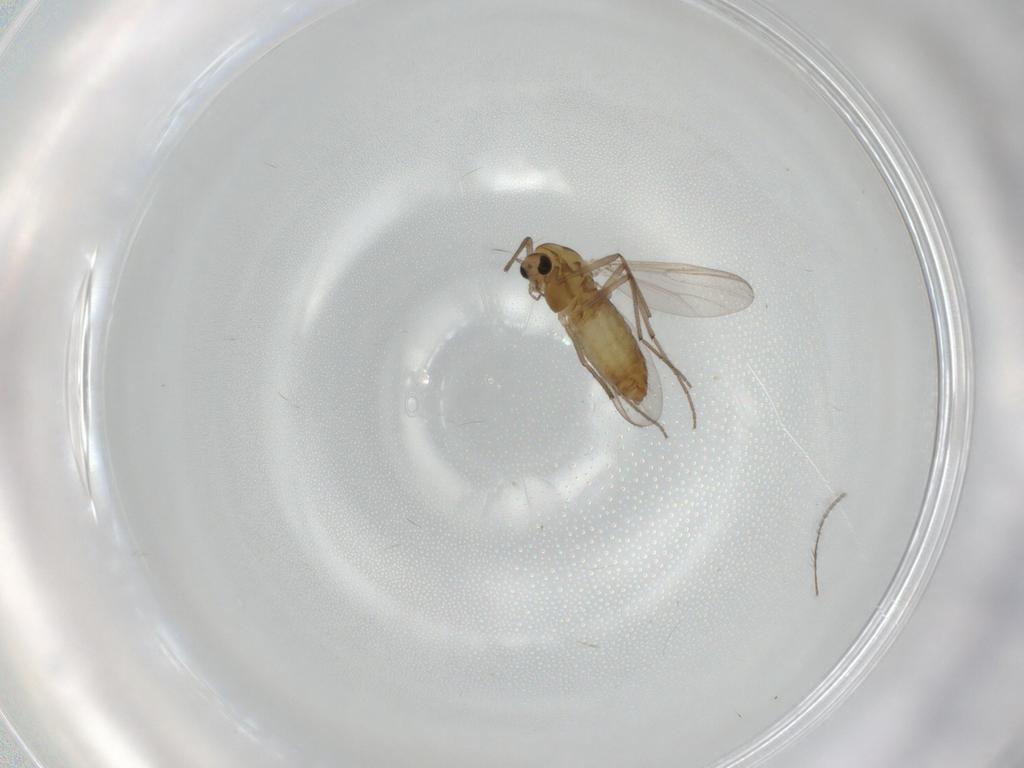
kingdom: Animalia
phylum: Arthropoda
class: Insecta
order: Diptera
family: Chironomidae
